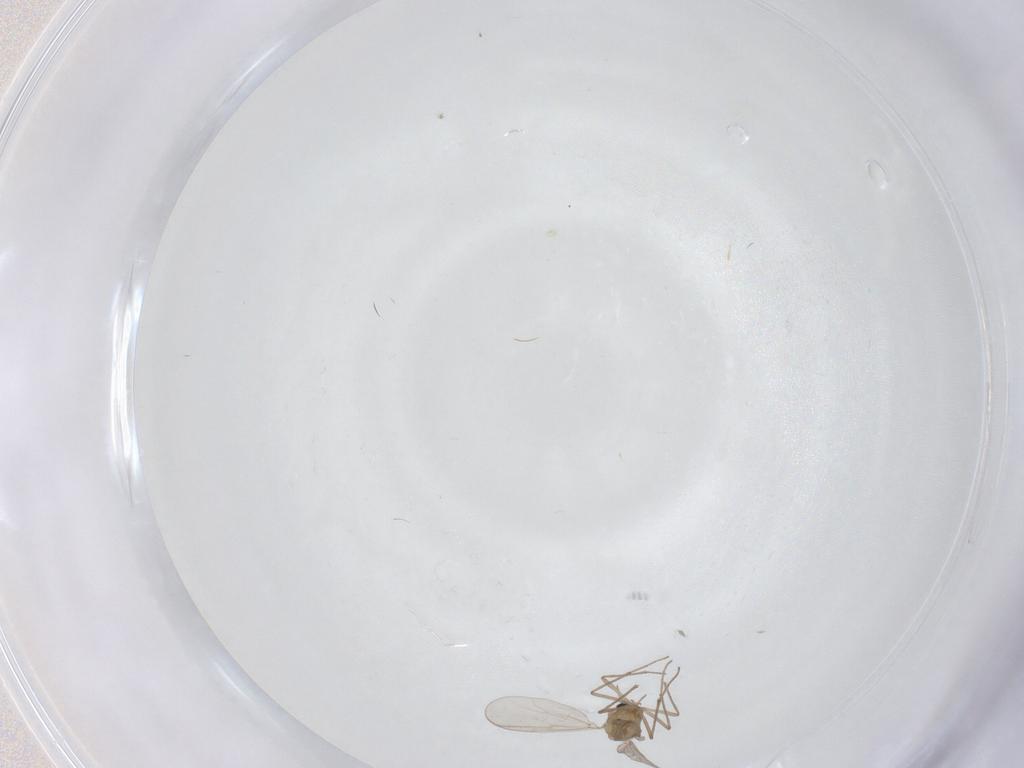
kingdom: Animalia
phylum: Arthropoda
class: Insecta
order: Diptera
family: Chironomidae
